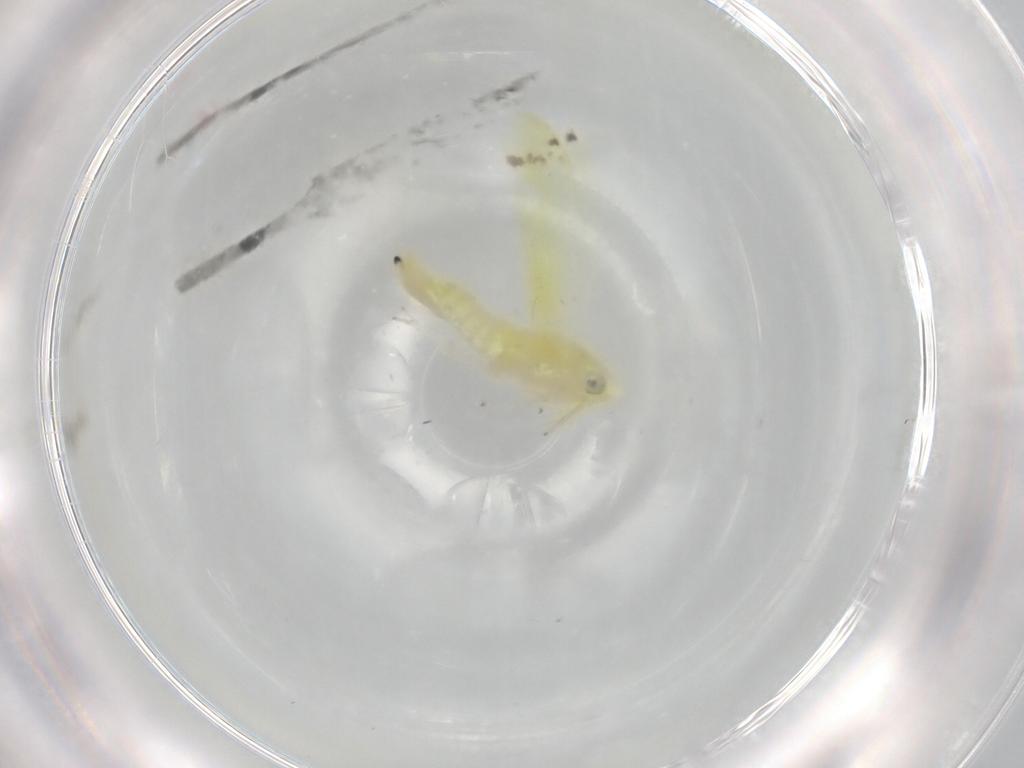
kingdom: Animalia
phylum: Arthropoda
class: Insecta
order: Hemiptera
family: Cicadellidae
